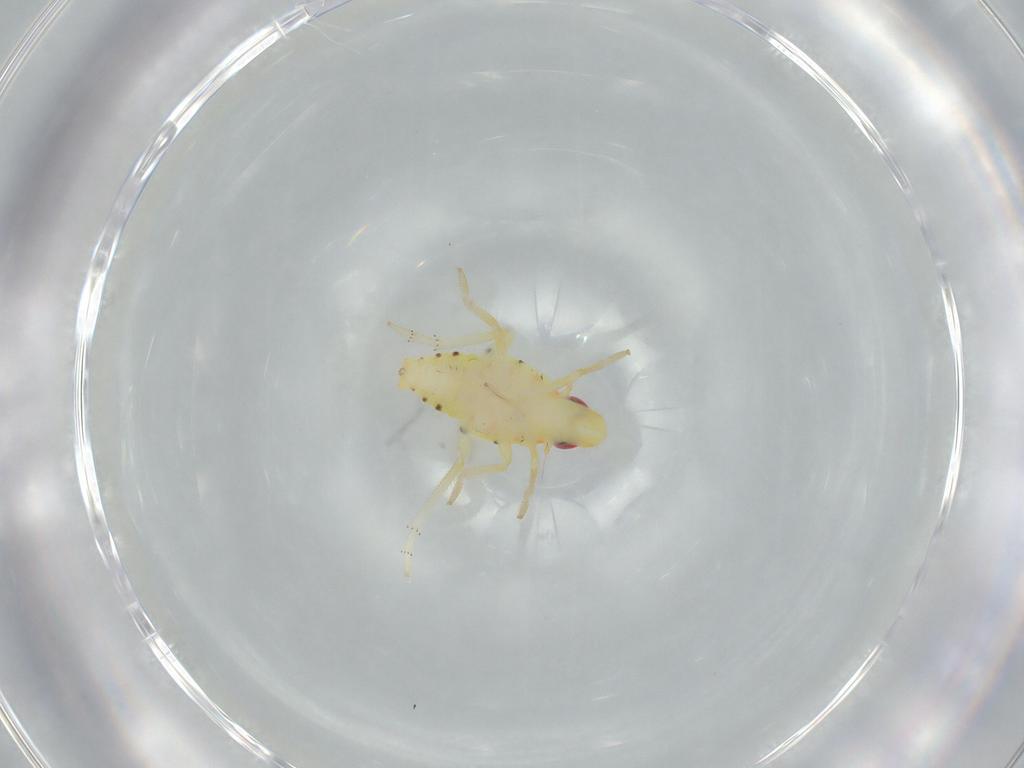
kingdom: Animalia
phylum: Arthropoda
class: Insecta
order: Hemiptera
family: Tropiduchidae
